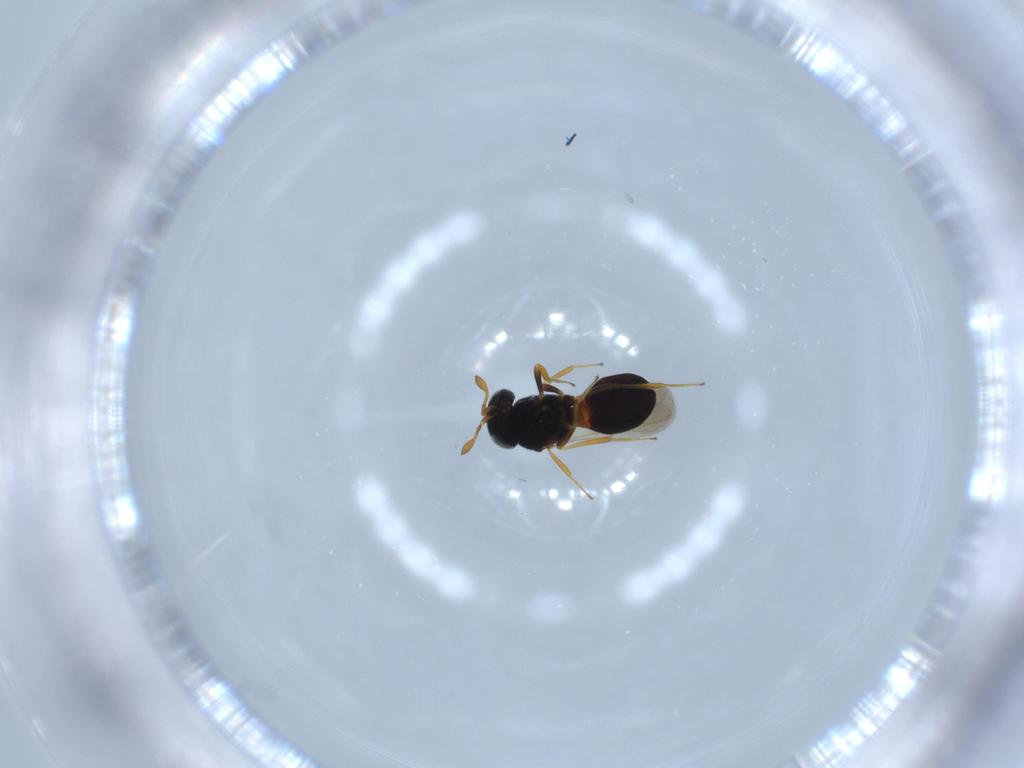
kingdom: Animalia
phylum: Arthropoda
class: Insecta
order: Hymenoptera
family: Scelionidae
